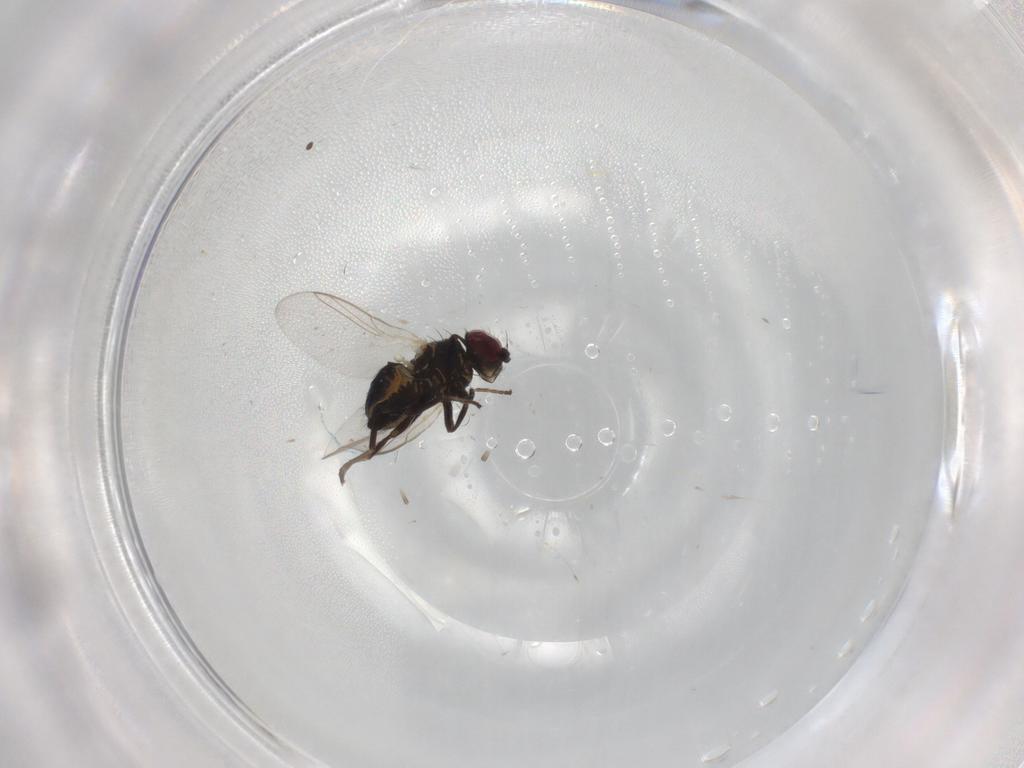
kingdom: Animalia
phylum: Arthropoda
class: Insecta
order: Diptera
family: Agromyzidae
